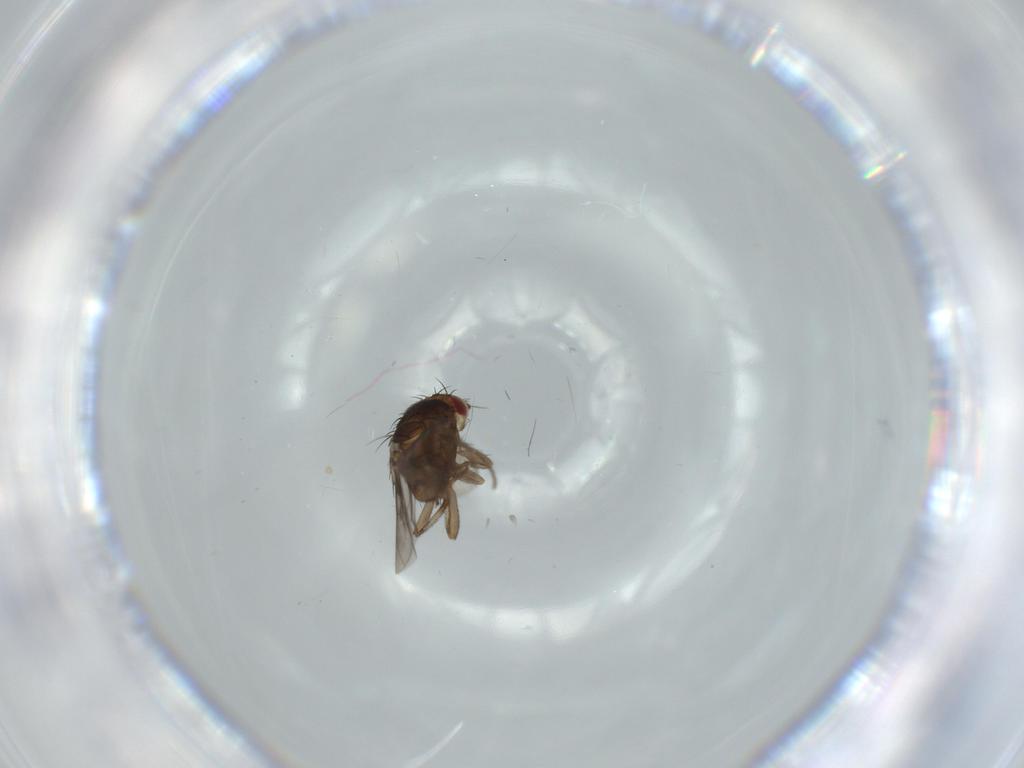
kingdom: Animalia
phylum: Arthropoda
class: Insecta
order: Diptera
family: Sphaeroceridae
